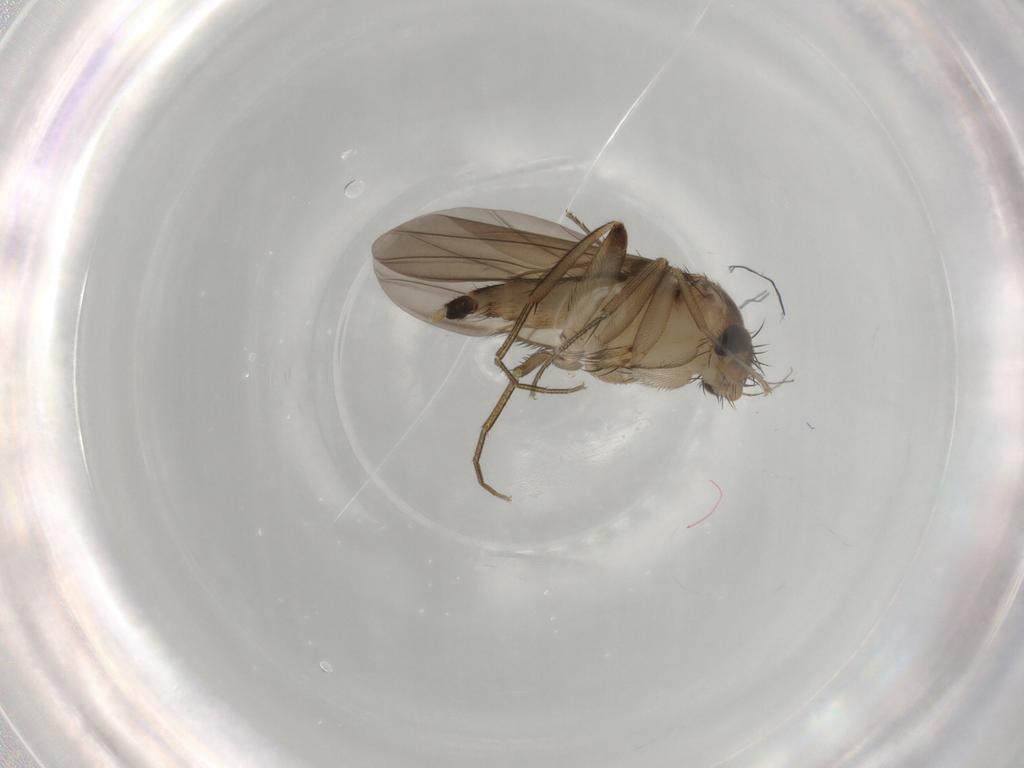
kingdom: Animalia
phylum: Arthropoda
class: Insecta
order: Diptera
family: Phoridae
